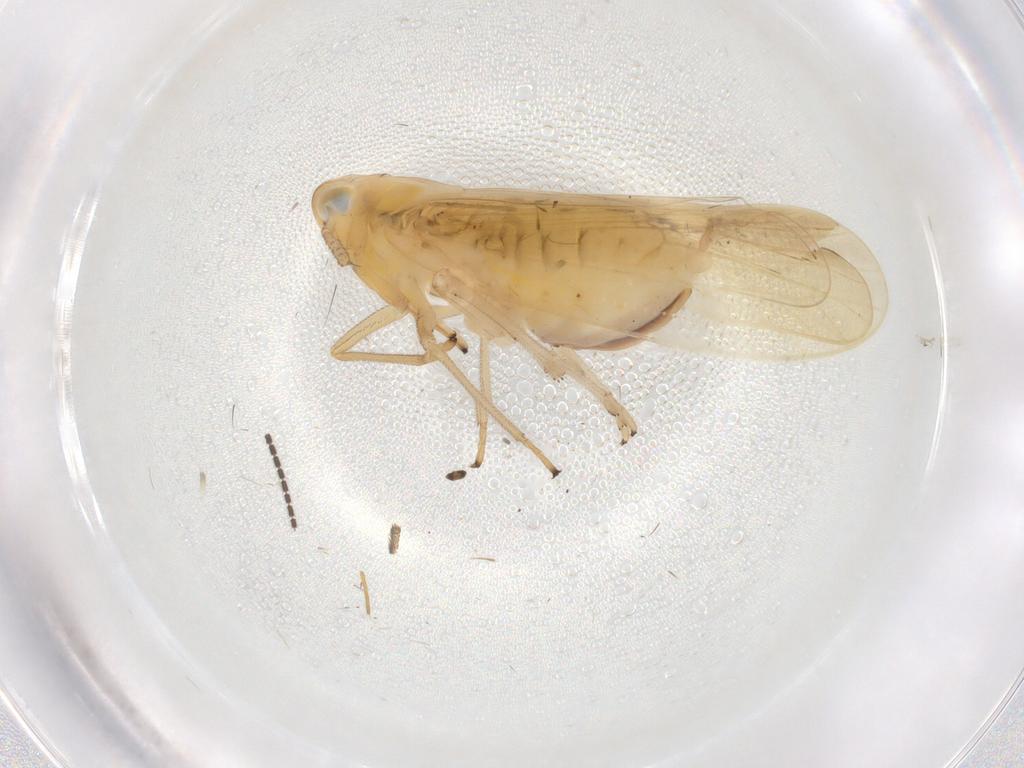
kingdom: Animalia
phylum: Arthropoda
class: Insecta
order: Hemiptera
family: Delphacidae
